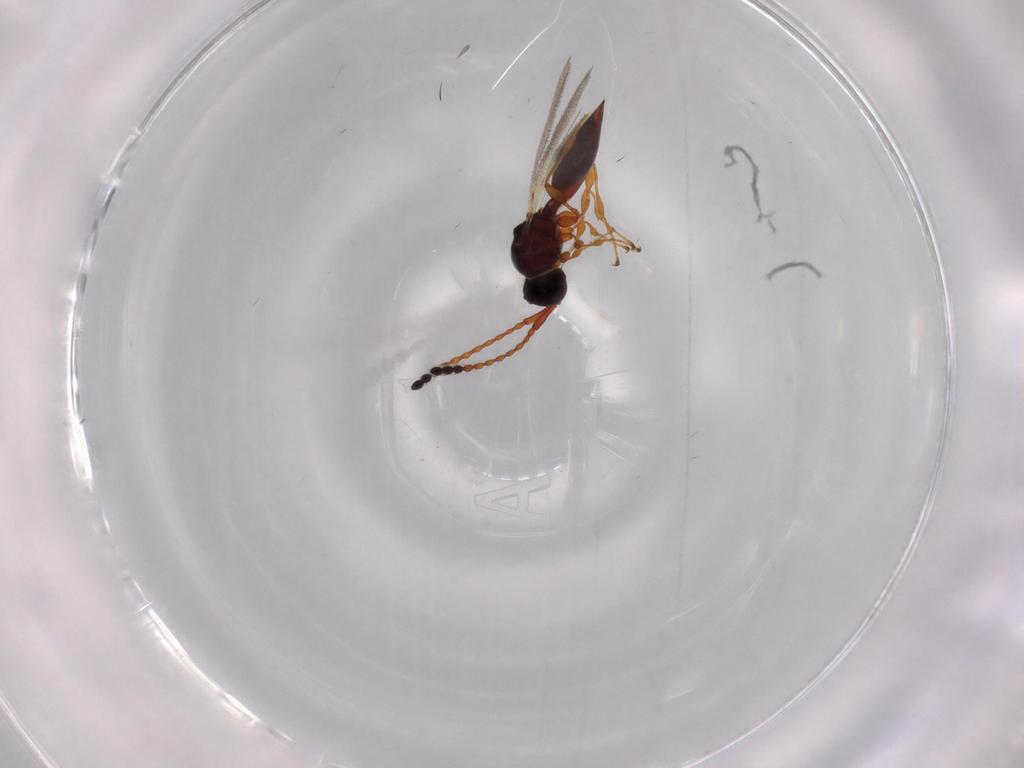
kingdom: Animalia
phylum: Arthropoda
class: Insecta
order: Hymenoptera
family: Diapriidae
